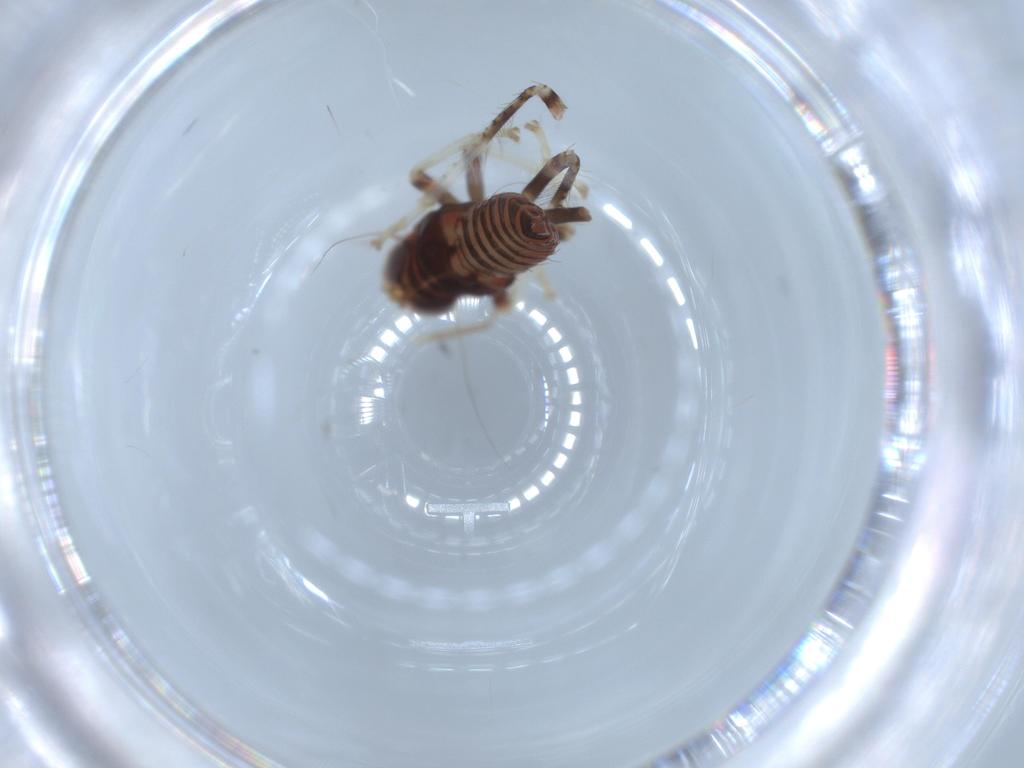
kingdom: Animalia
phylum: Arthropoda
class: Insecta
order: Hemiptera
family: Cicadellidae
